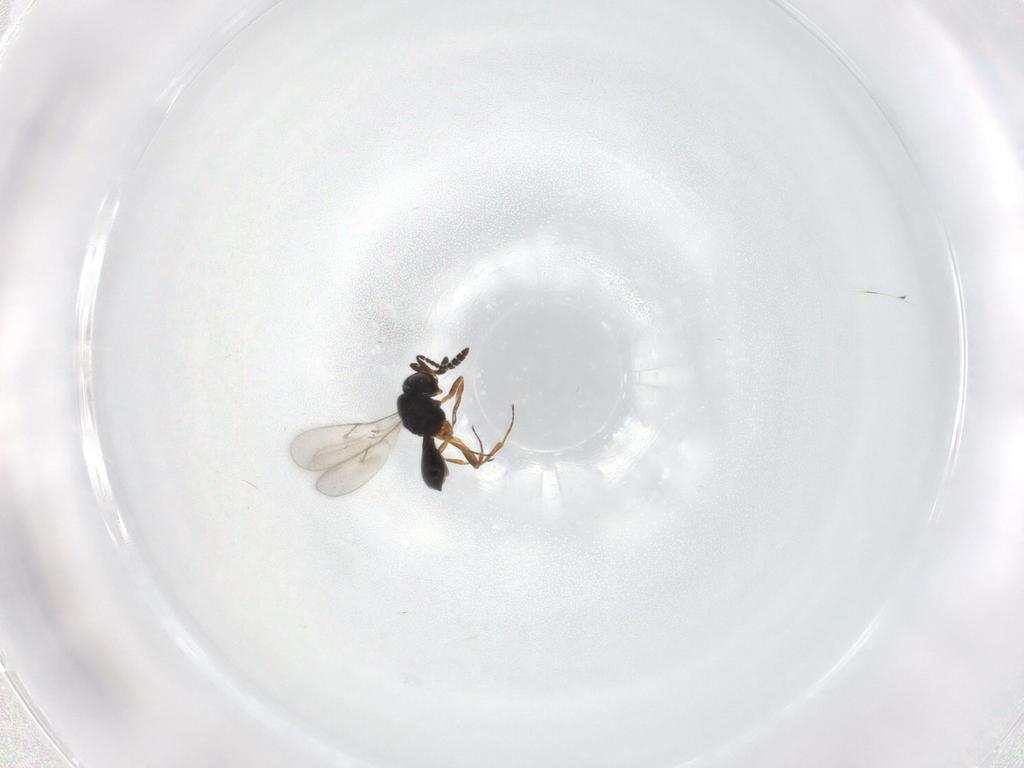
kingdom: Animalia
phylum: Arthropoda
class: Insecta
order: Hymenoptera
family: Scelionidae
